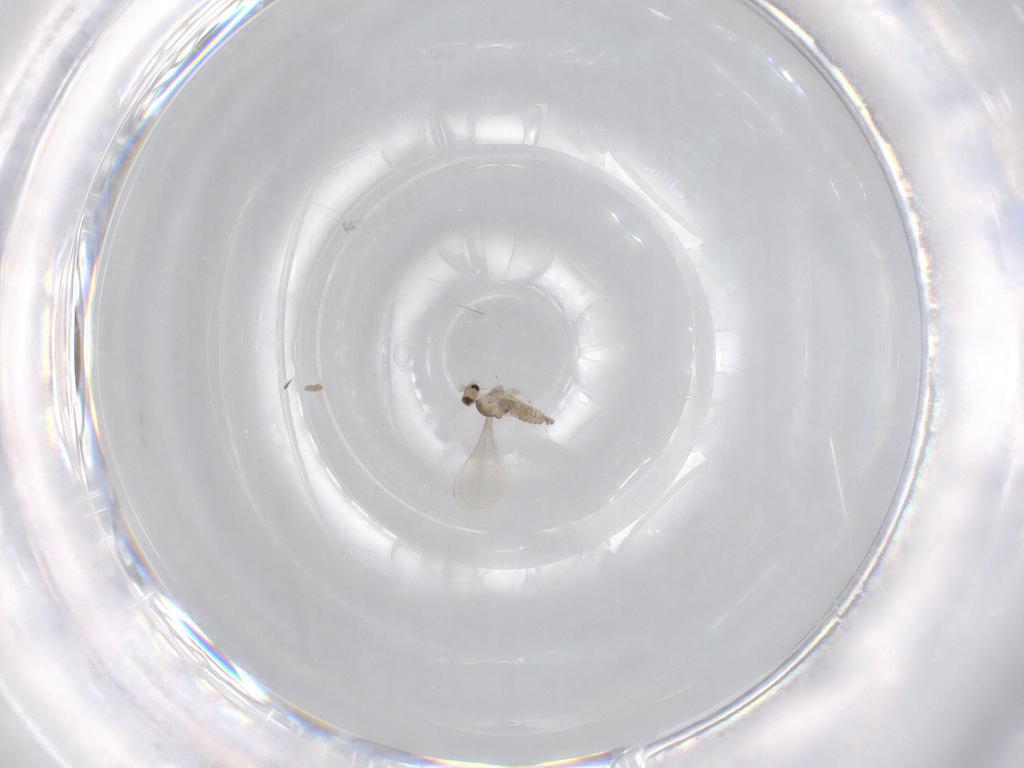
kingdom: Animalia
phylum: Arthropoda
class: Insecta
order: Diptera
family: Cecidomyiidae
